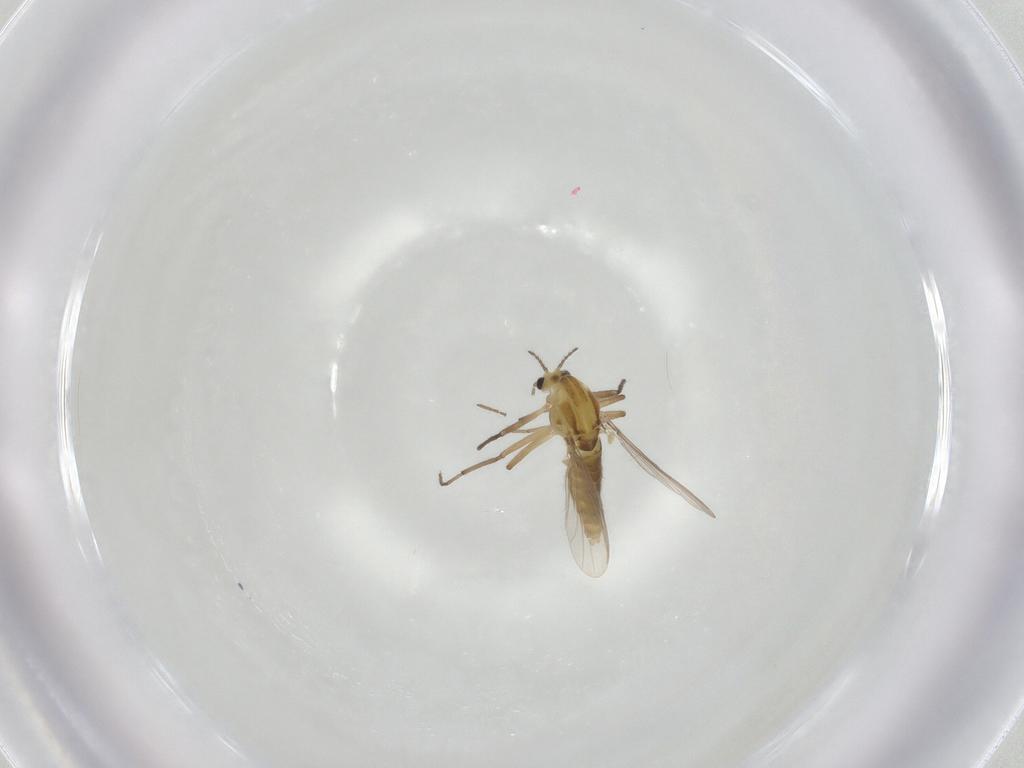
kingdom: Animalia
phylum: Arthropoda
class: Insecta
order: Diptera
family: Chironomidae
